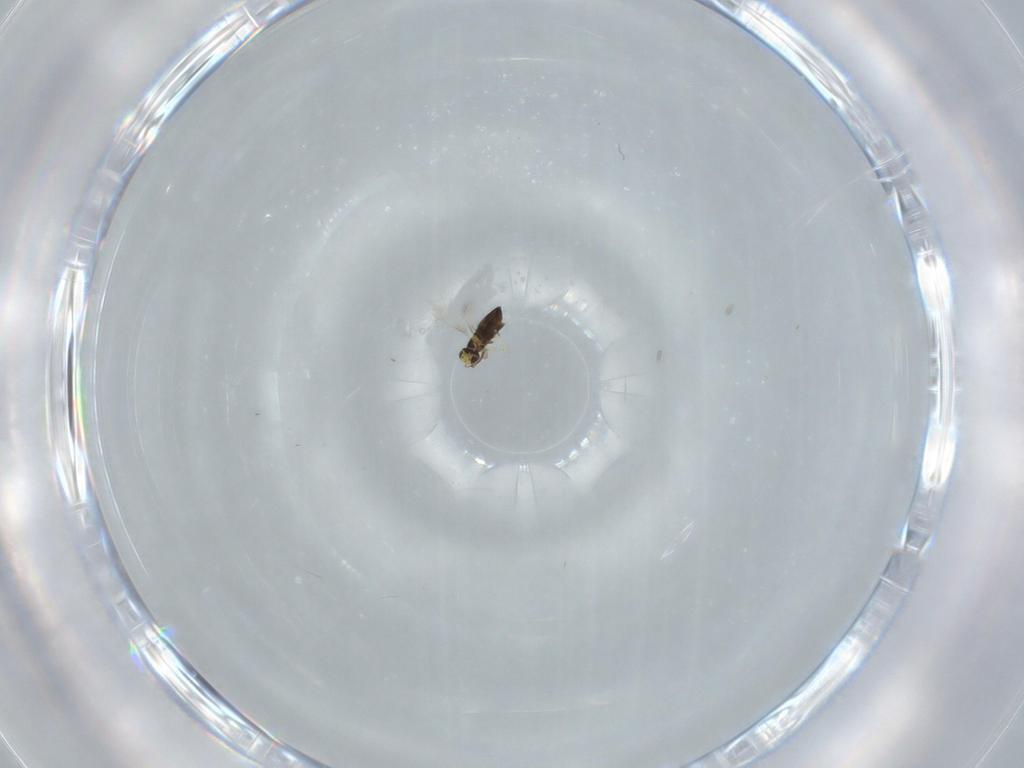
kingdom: Animalia
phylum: Arthropoda
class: Insecta
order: Hymenoptera
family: Signiphoridae
